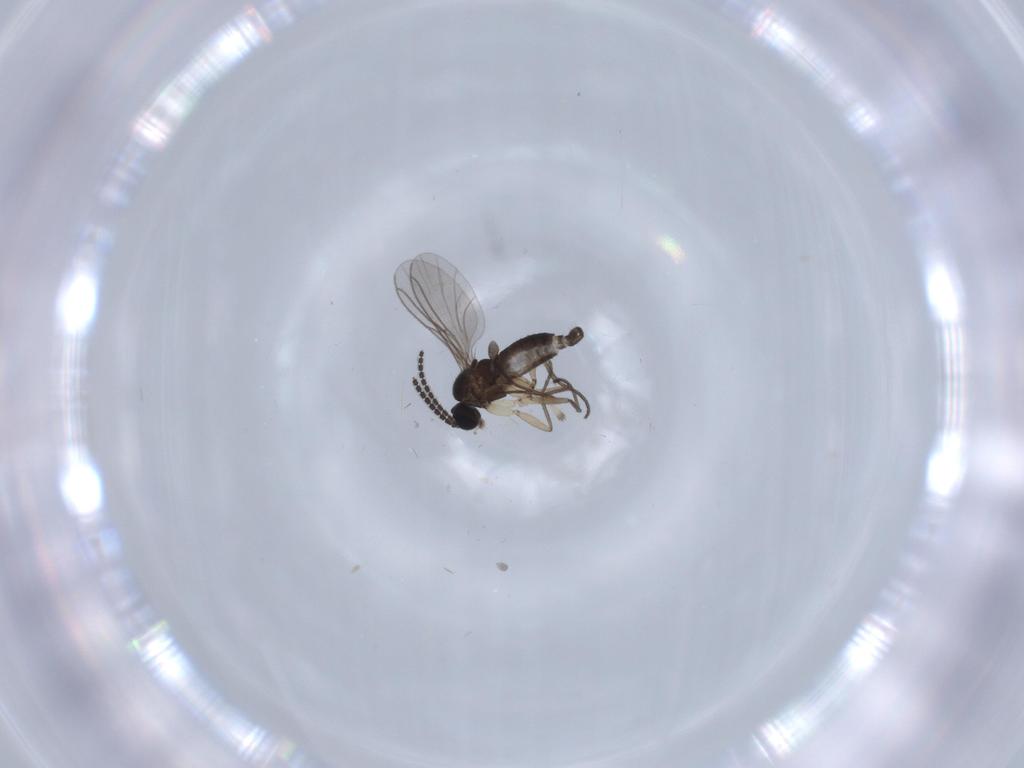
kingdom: Animalia
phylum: Arthropoda
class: Insecta
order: Diptera
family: Sciaridae
